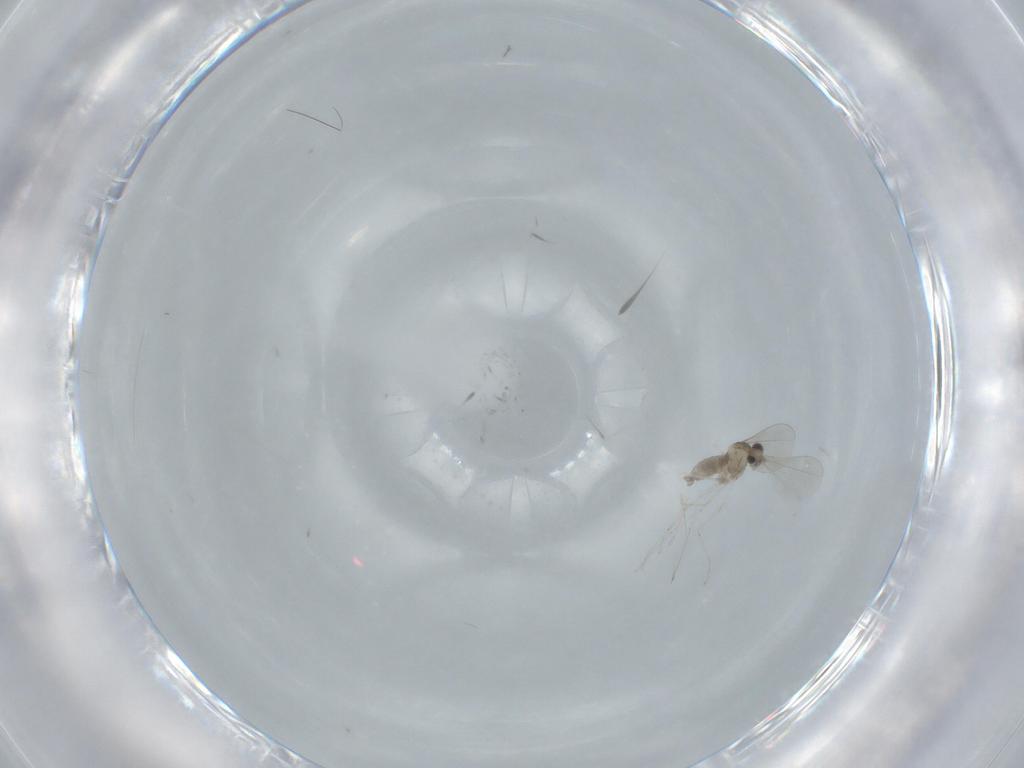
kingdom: Animalia
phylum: Arthropoda
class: Insecta
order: Diptera
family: Cecidomyiidae
